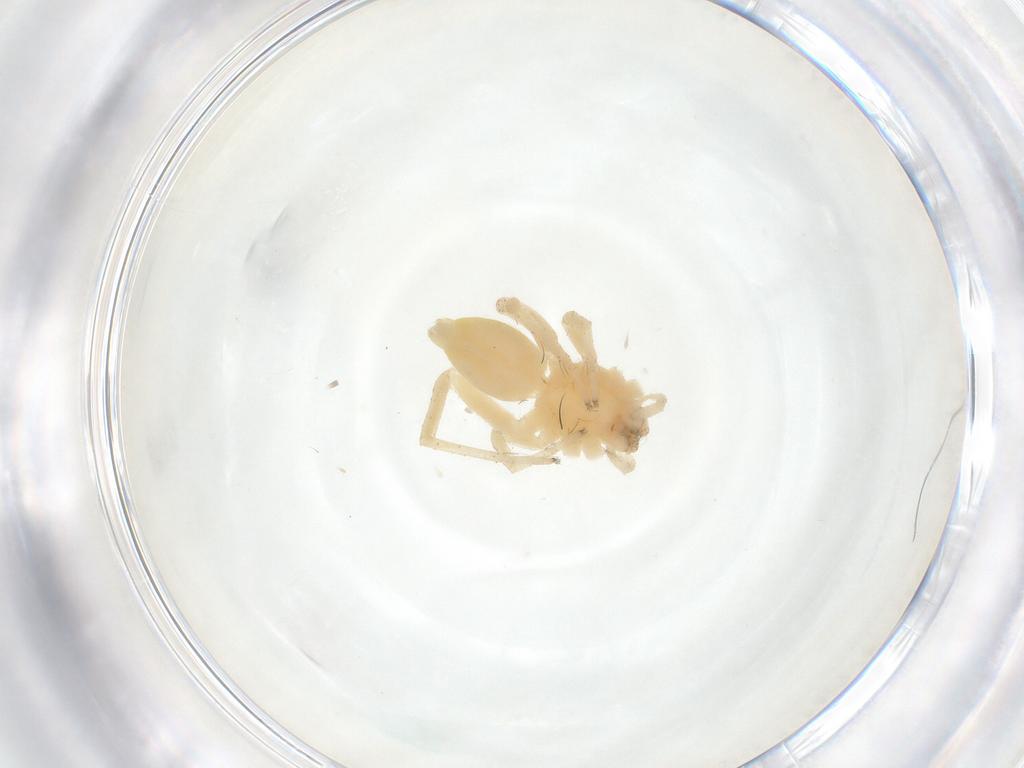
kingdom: Animalia
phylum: Arthropoda
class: Arachnida
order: Araneae
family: Anyphaenidae
